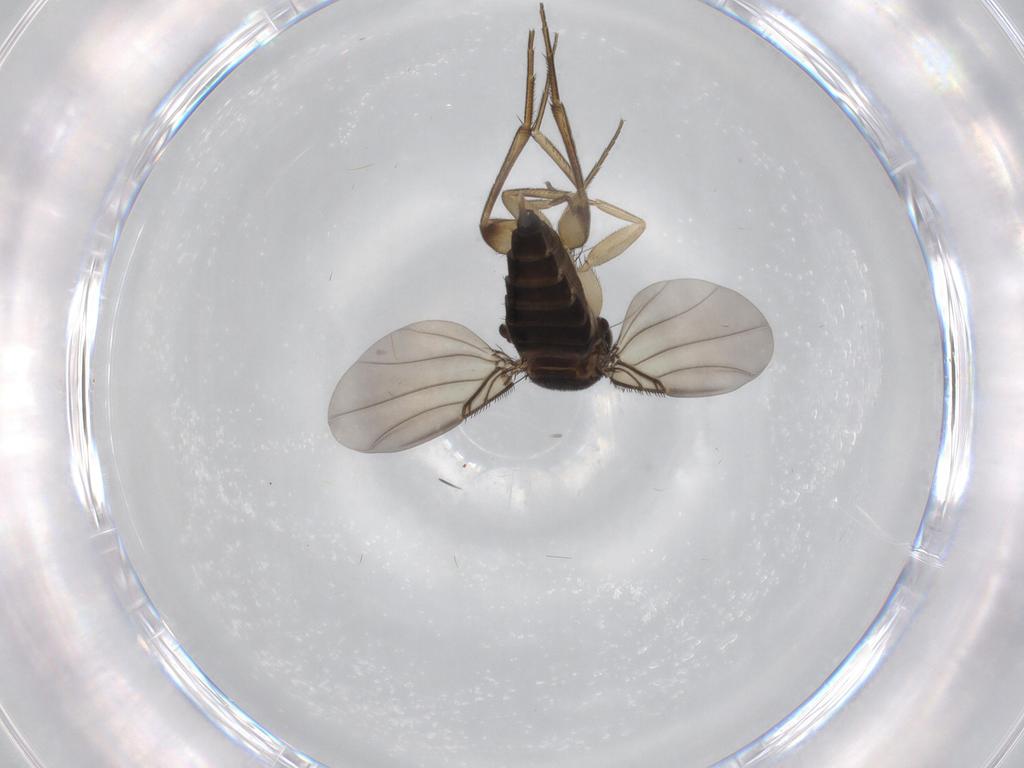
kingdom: Animalia
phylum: Arthropoda
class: Insecta
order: Diptera
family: Phoridae
